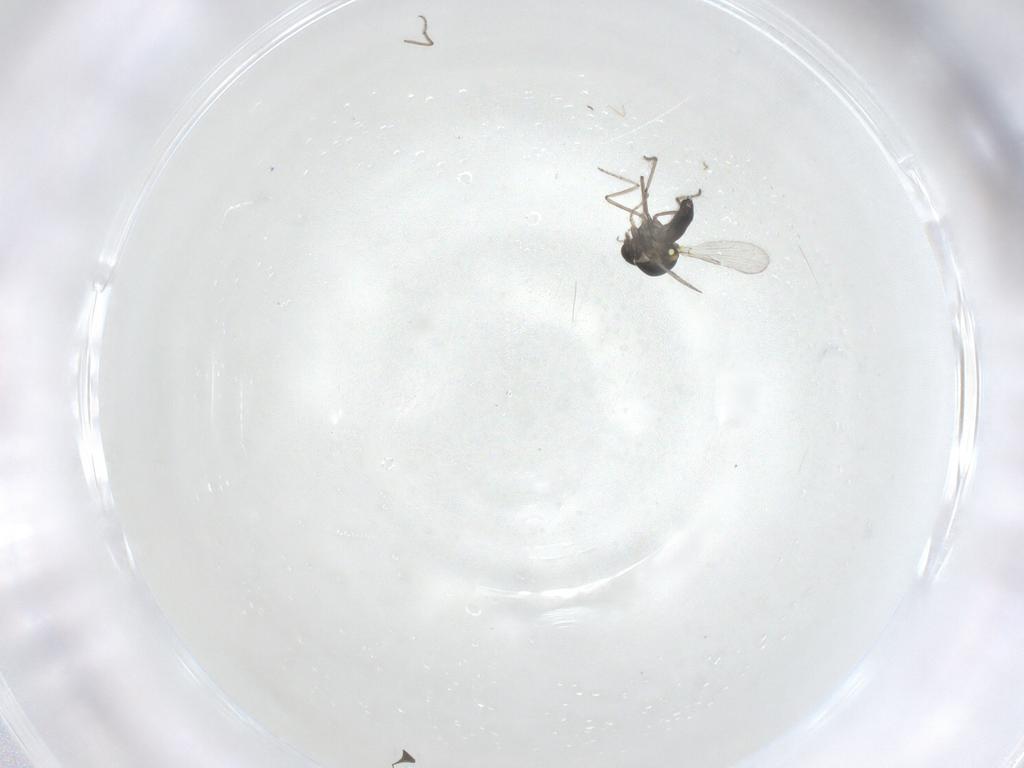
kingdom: Animalia
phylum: Arthropoda
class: Insecta
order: Diptera
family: Ceratopogonidae
